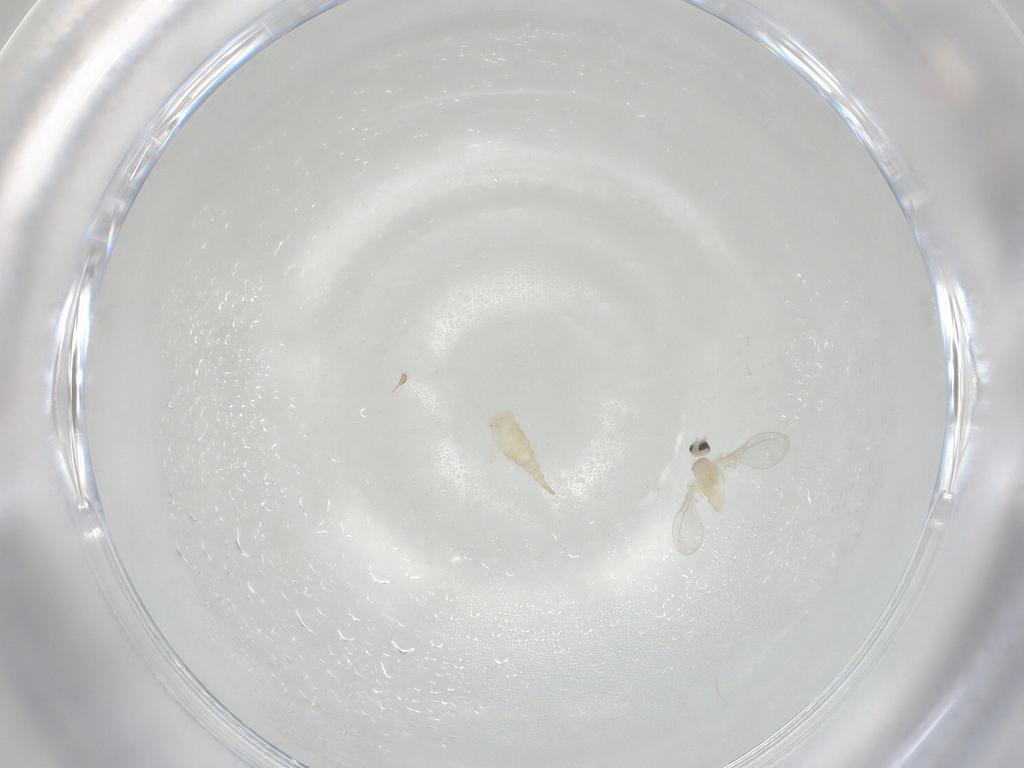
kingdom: Animalia
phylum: Arthropoda
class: Insecta
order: Diptera
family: Cecidomyiidae
